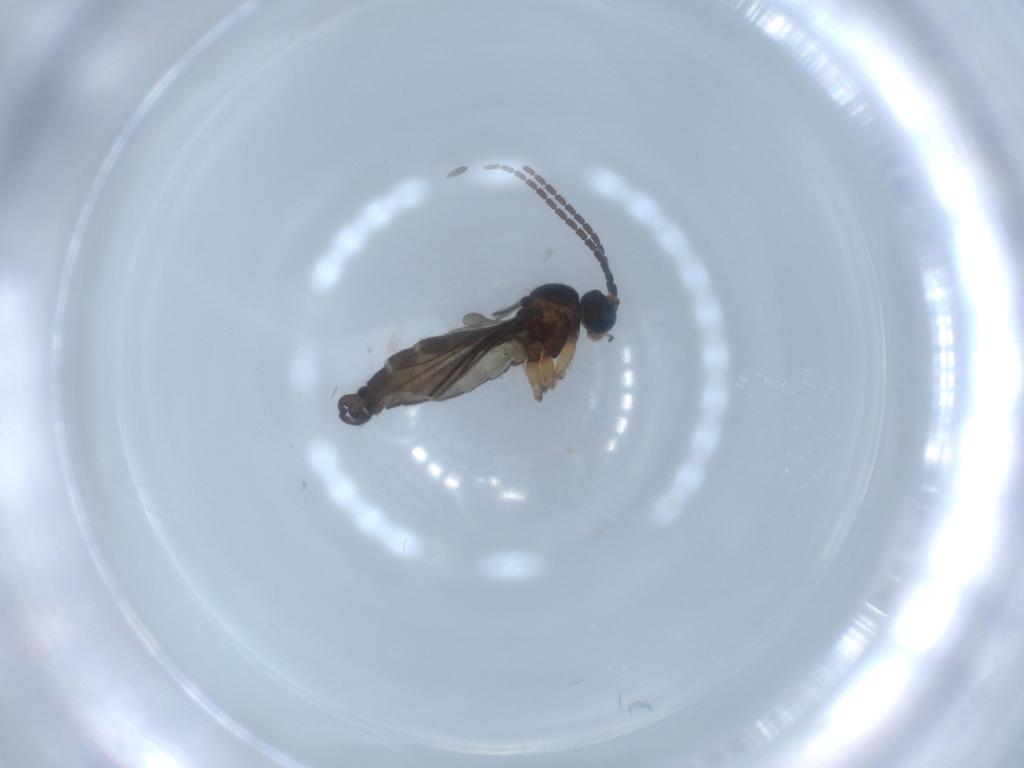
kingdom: Animalia
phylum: Arthropoda
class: Insecta
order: Diptera
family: Sciaridae
